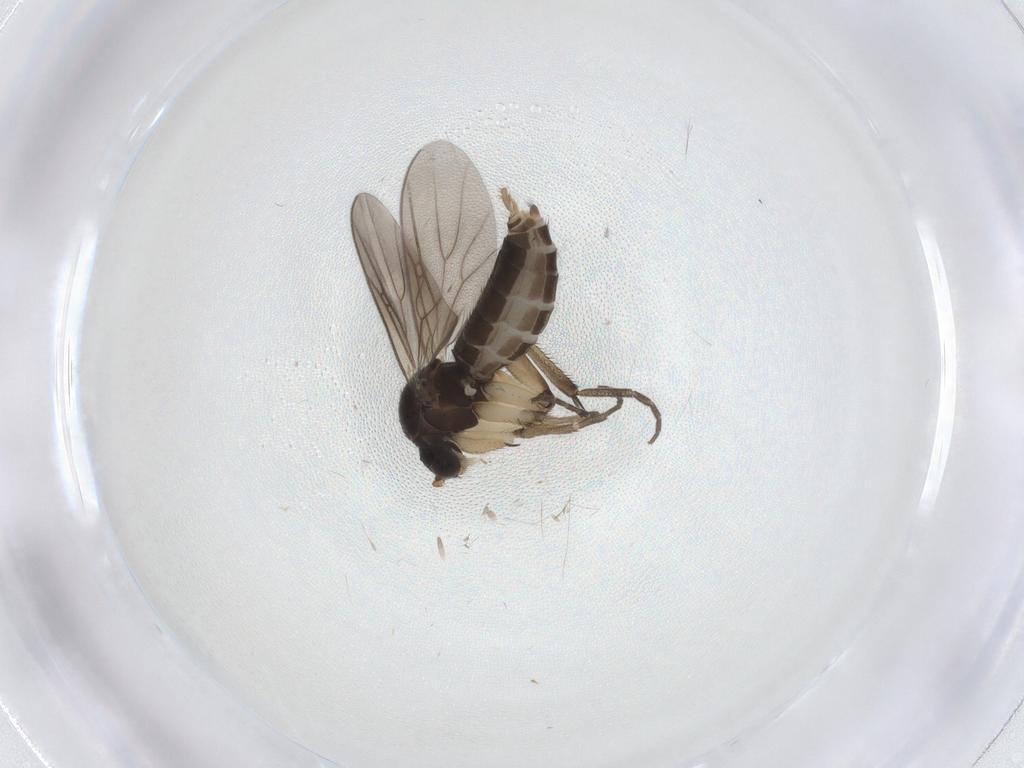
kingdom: Animalia
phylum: Arthropoda
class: Insecta
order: Diptera
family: Mycetophilidae
